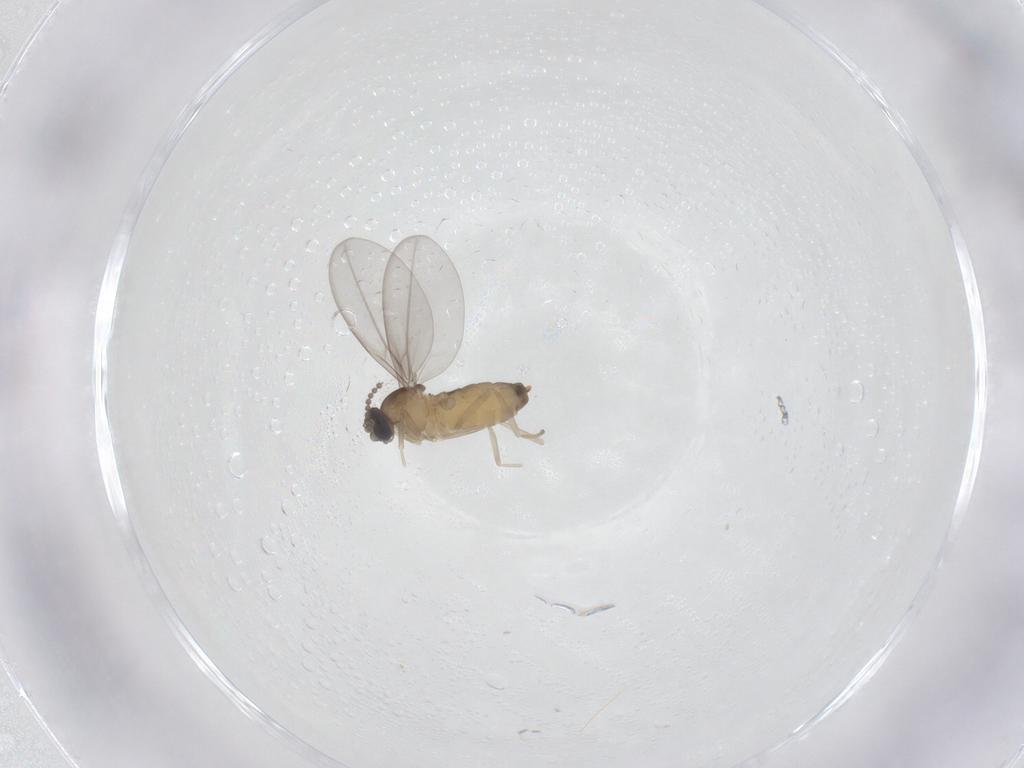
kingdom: Animalia
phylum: Arthropoda
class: Insecta
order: Diptera
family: Cecidomyiidae
